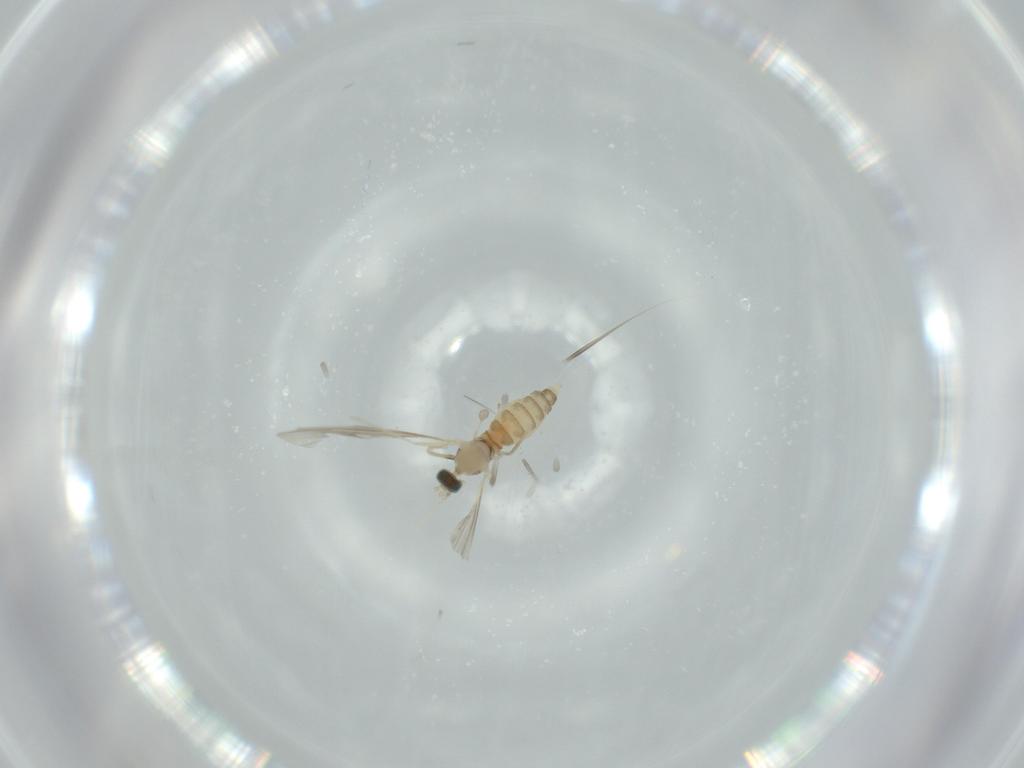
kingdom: Animalia
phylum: Arthropoda
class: Insecta
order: Diptera
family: Cecidomyiidae
